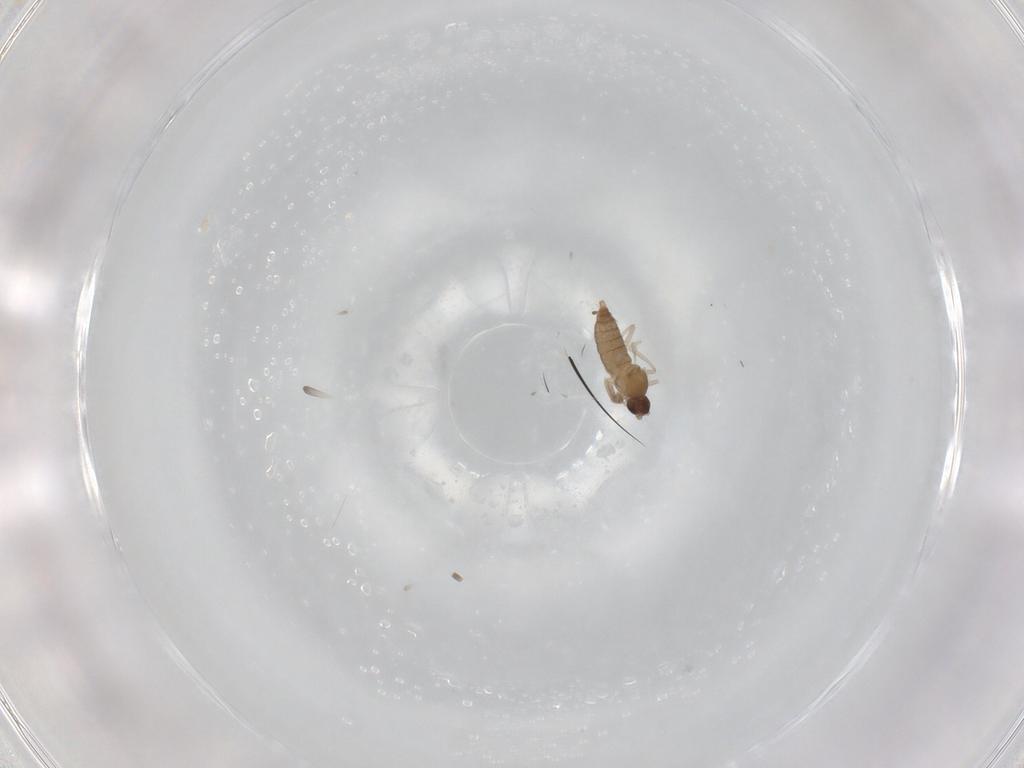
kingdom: Animalia
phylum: Arthropoda
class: Insecta
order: Diptera
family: Cecidomyiidae
